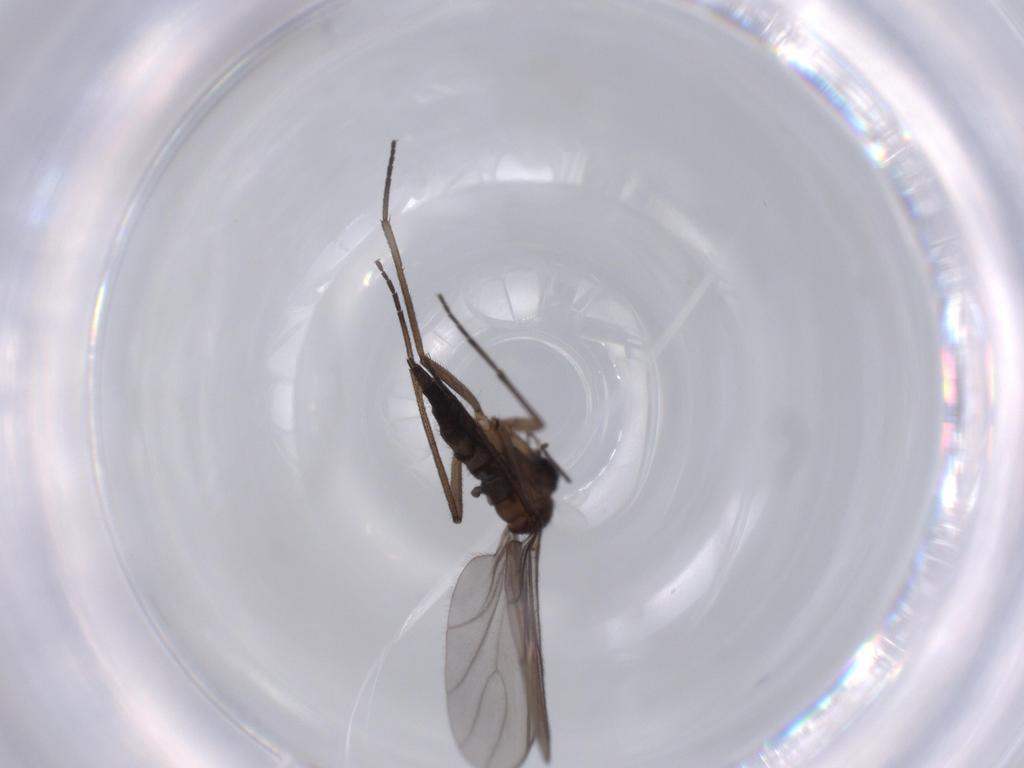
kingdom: Animalia
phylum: Arthropoda
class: Insecta
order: Diptera
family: Sciaridae
